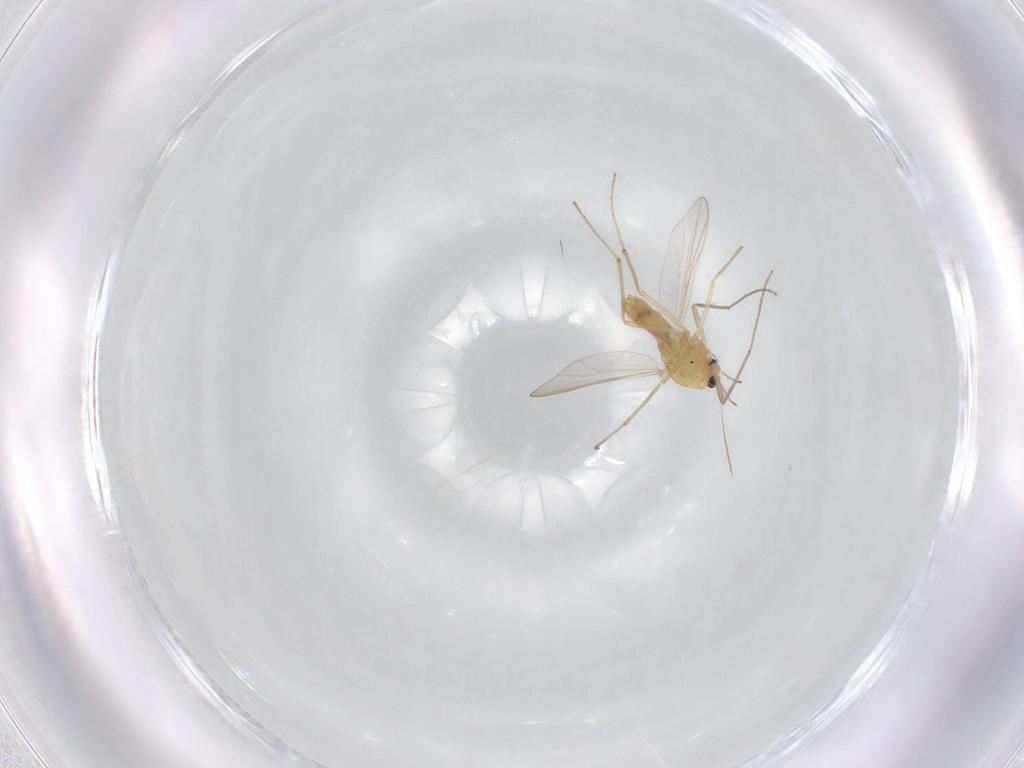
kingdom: Animalia
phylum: Arthropoda
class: Insecta
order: Diptera
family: Chironomidae
